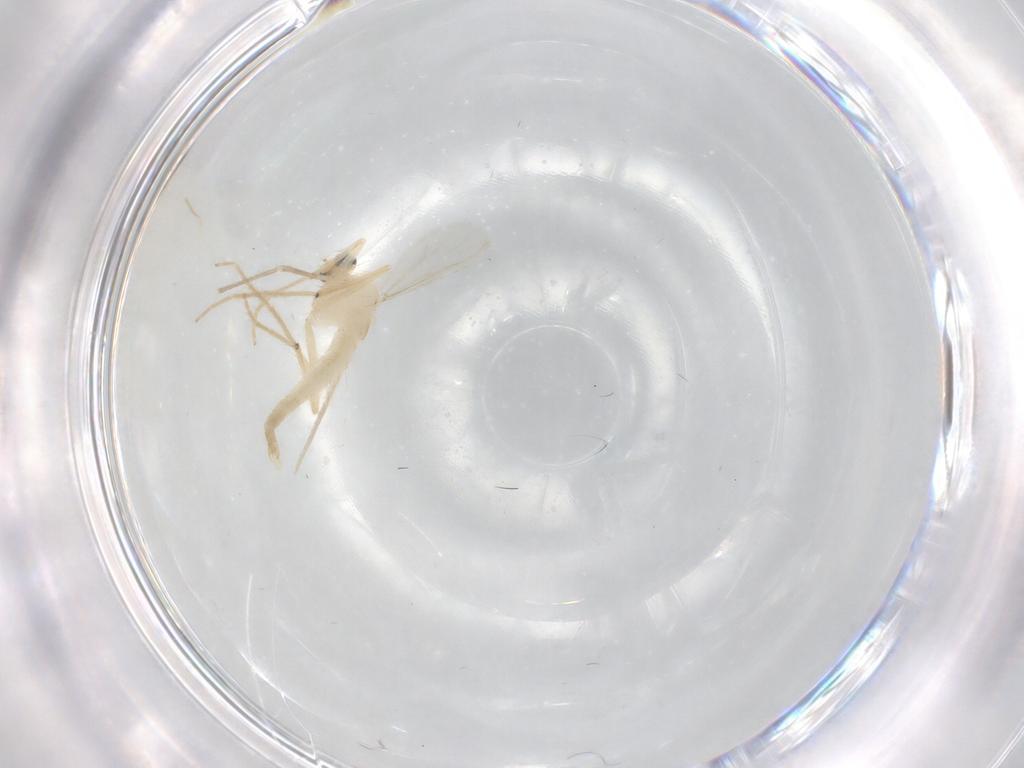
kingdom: Animalia
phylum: Arthropoda
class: Insecta
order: Diptera
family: Chironomidae
